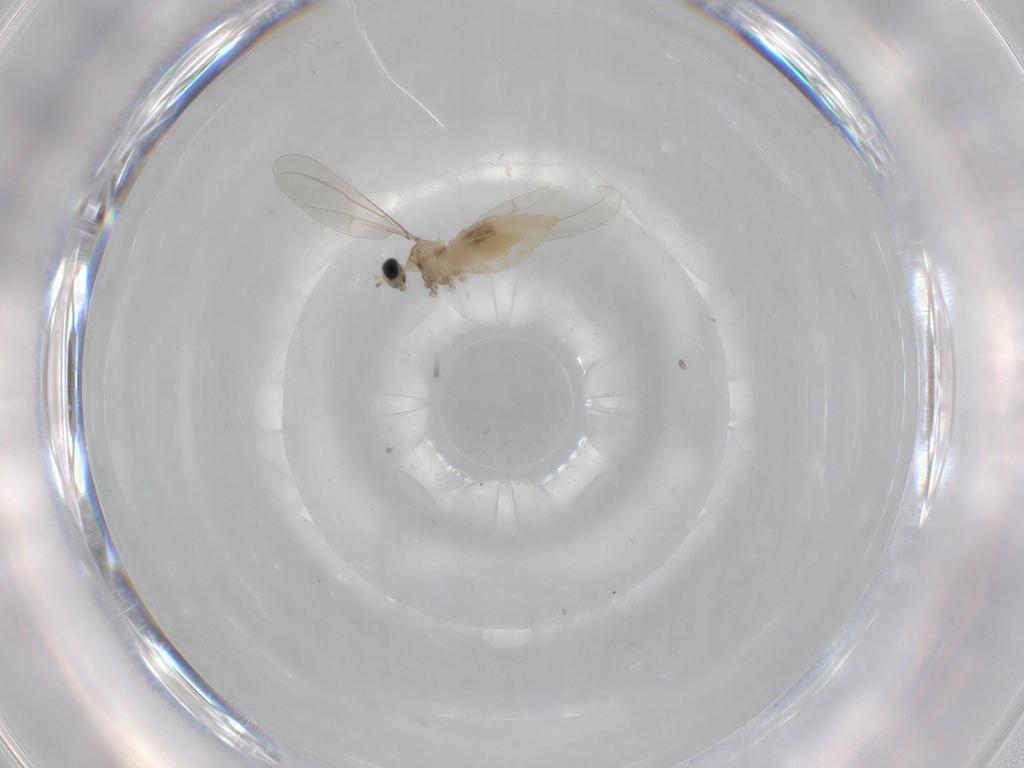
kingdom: Animalia
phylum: Arthropoda
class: Insecta
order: Diptera
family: Cecidomyiidae
